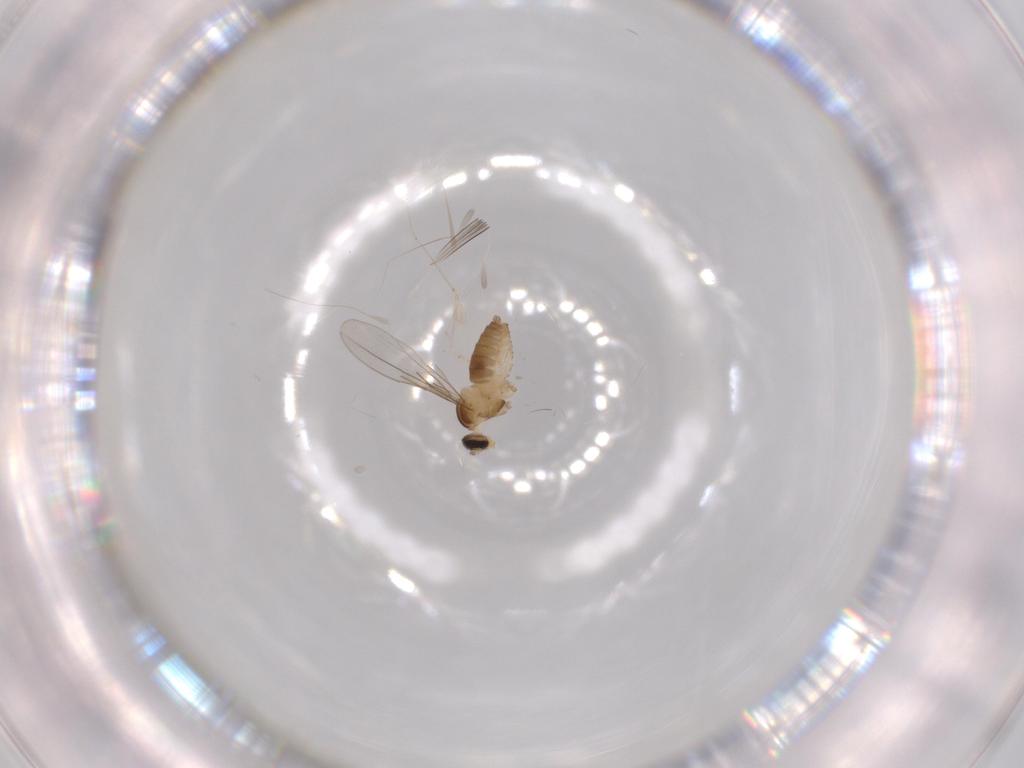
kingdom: Animalia
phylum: Arthropoda
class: Insecta
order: Diptera
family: Cecidomyiidae
